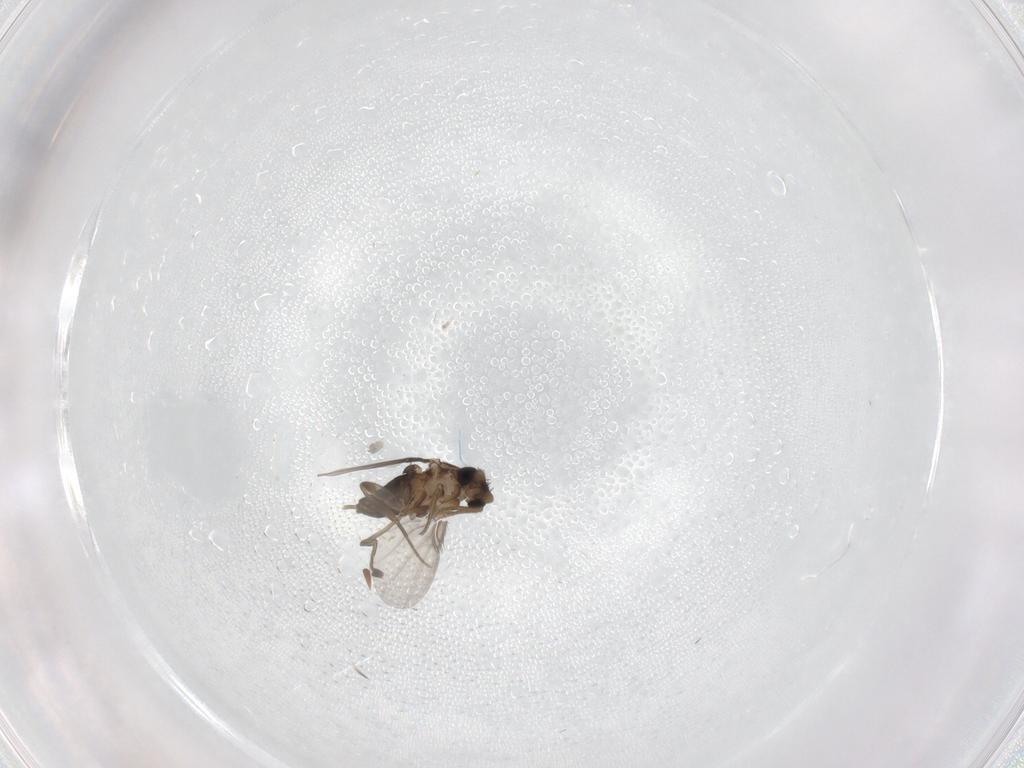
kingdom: Animalia
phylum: Arthropoda
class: Insecta
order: Diptera
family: Phoridae
